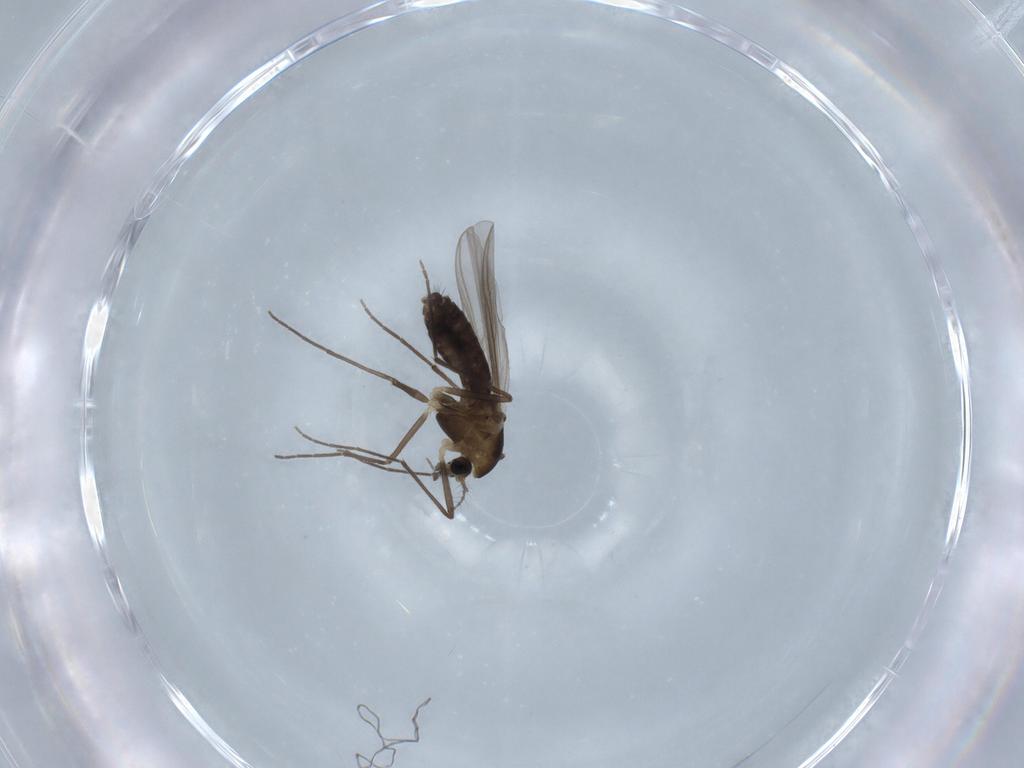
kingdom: Animalia
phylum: Arthropoda
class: Insecta
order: Diptera
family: Chironomidae
